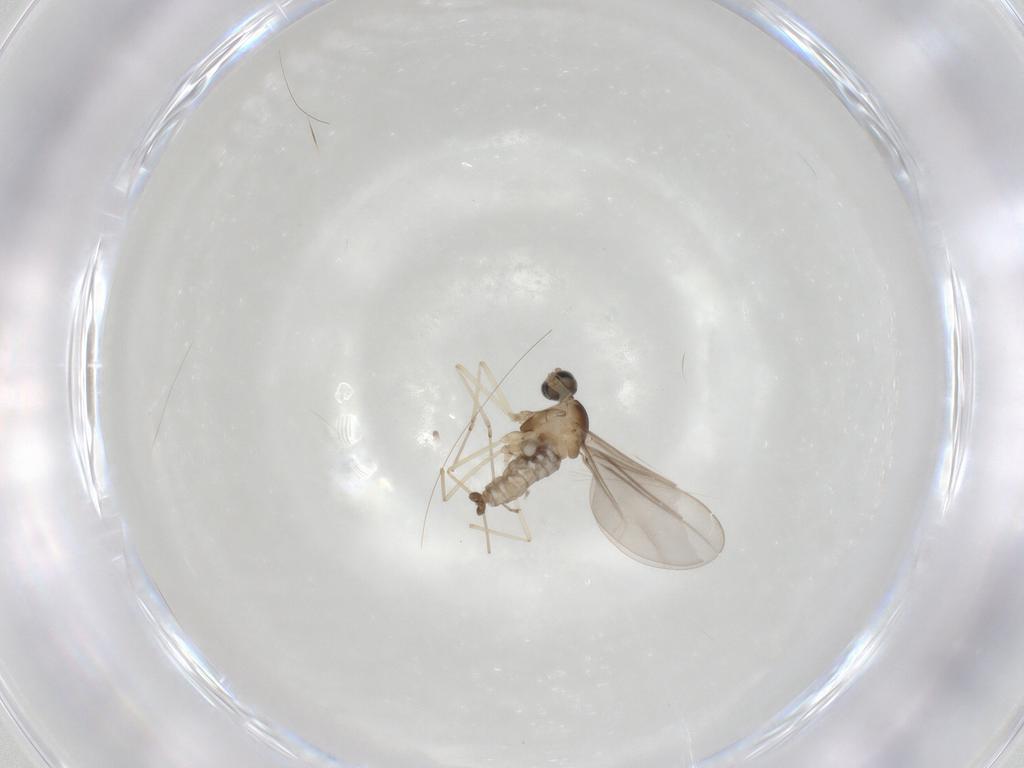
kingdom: Animalia
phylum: Arthropoda
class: Insecta
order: Diptera
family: Cecidomyiidae
